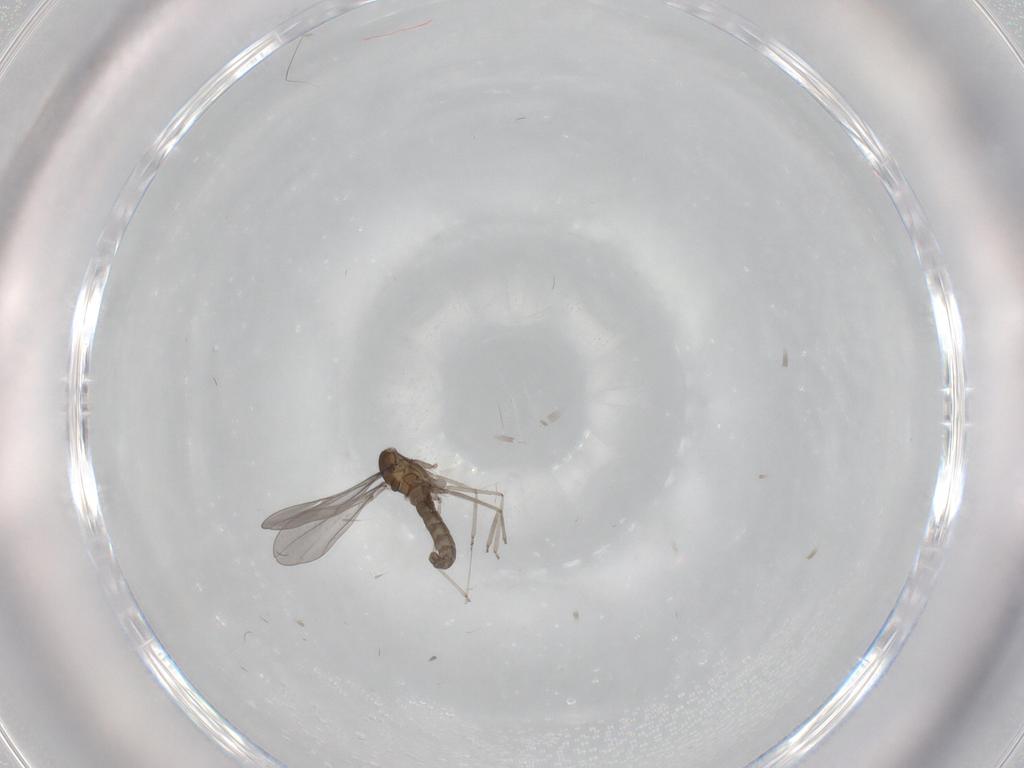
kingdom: Animalia
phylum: Arthropoda
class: Insecta
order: Diptera
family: Cecidomyiidae
